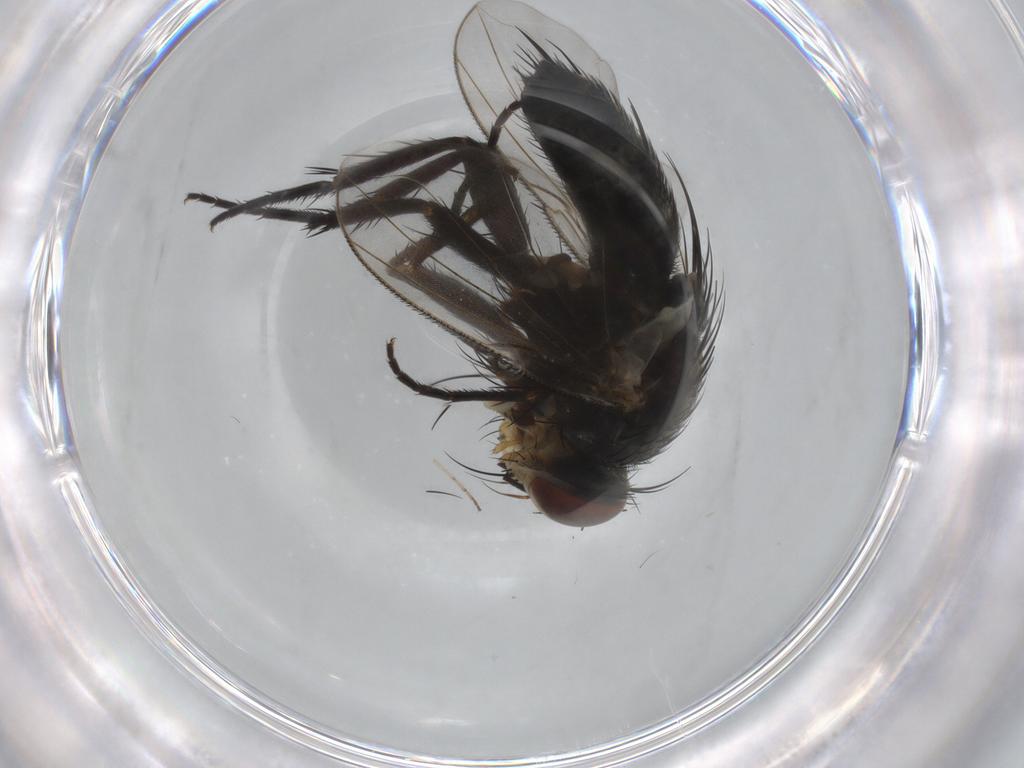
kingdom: Animalia
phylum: Arthropoda
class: Insecta
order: Diptera
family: Tachinidae
